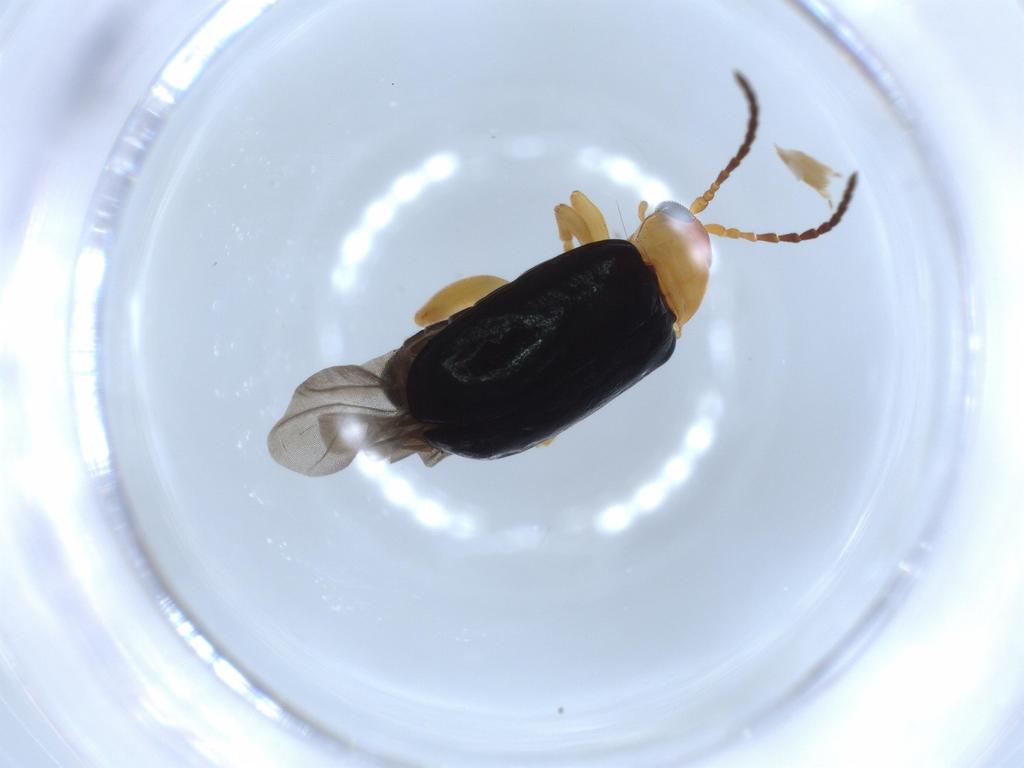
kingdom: Animalia
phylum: Arthropoda
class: Insecta
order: Coleoptera
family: Chrysomelidae
